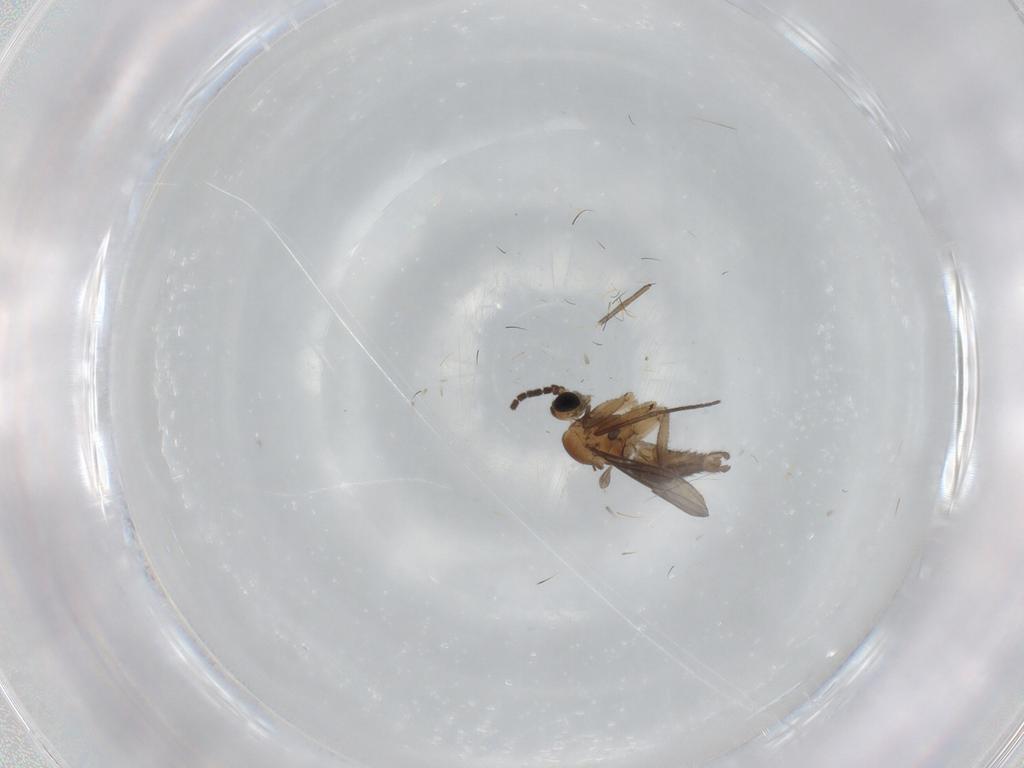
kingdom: Animalia
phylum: Arthropoda
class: Insecta
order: Diptera
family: Sciaridae
